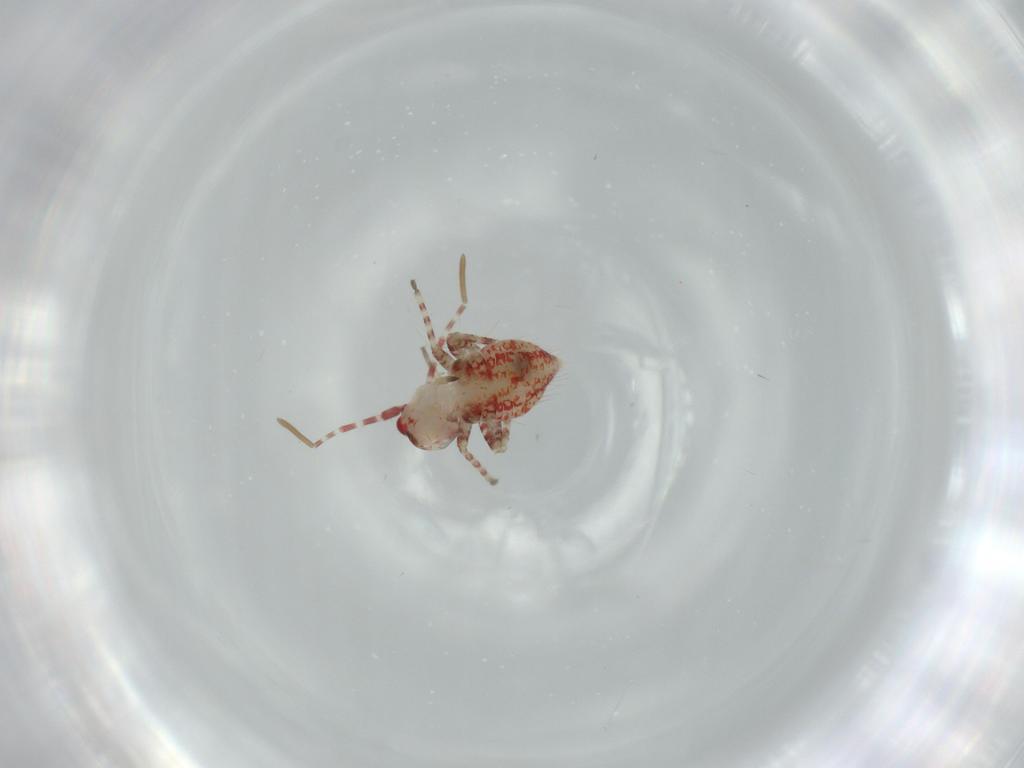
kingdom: Animalia
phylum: Arthropoda
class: Insecta
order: Hemiptera
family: Miridae
